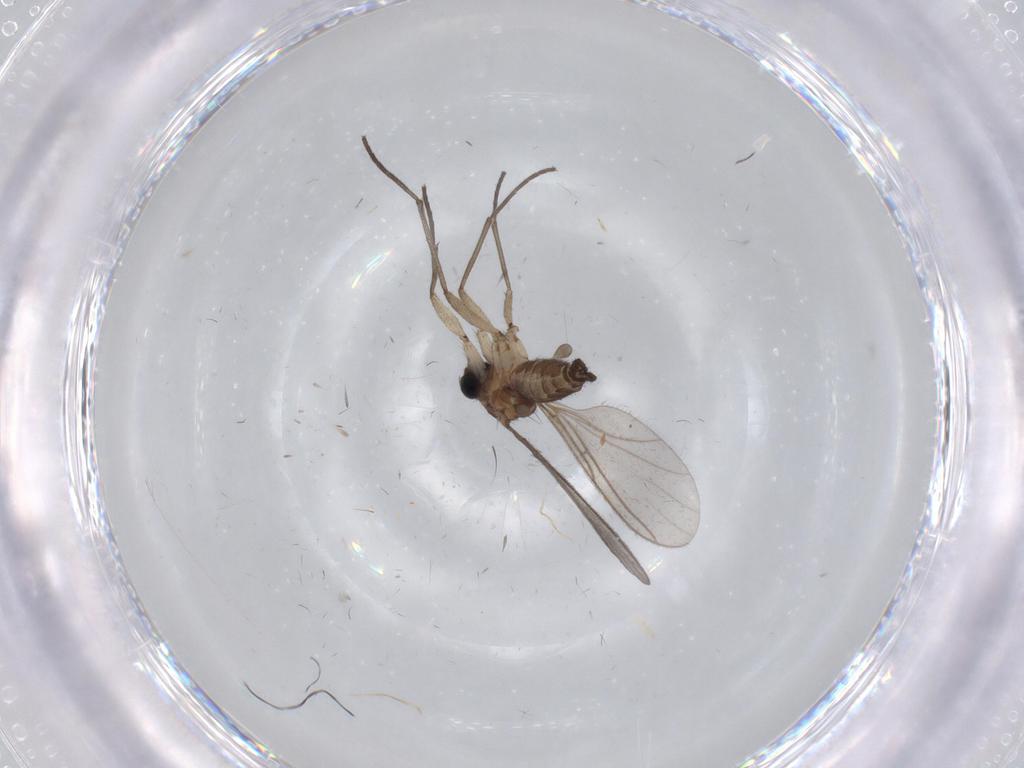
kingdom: Animalia
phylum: Arthropoda
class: Insecta
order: Diptera
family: Sciaridae
